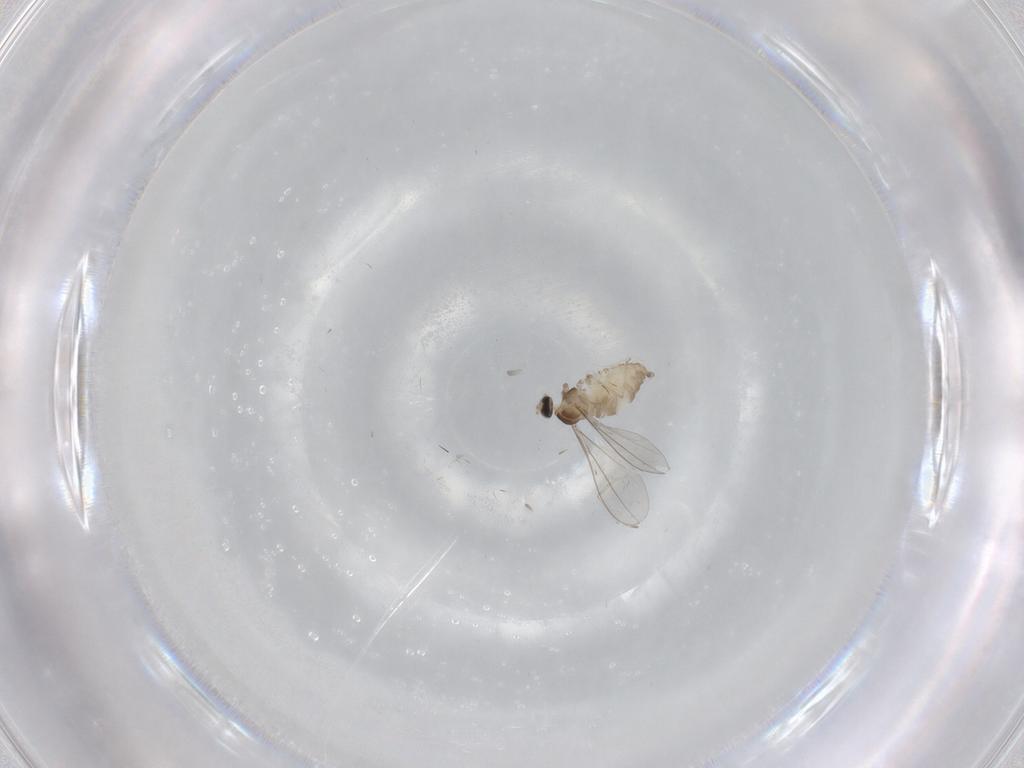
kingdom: Animalia
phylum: Arthropoda
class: Insecta
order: Diptera
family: Cecidomyiidae
